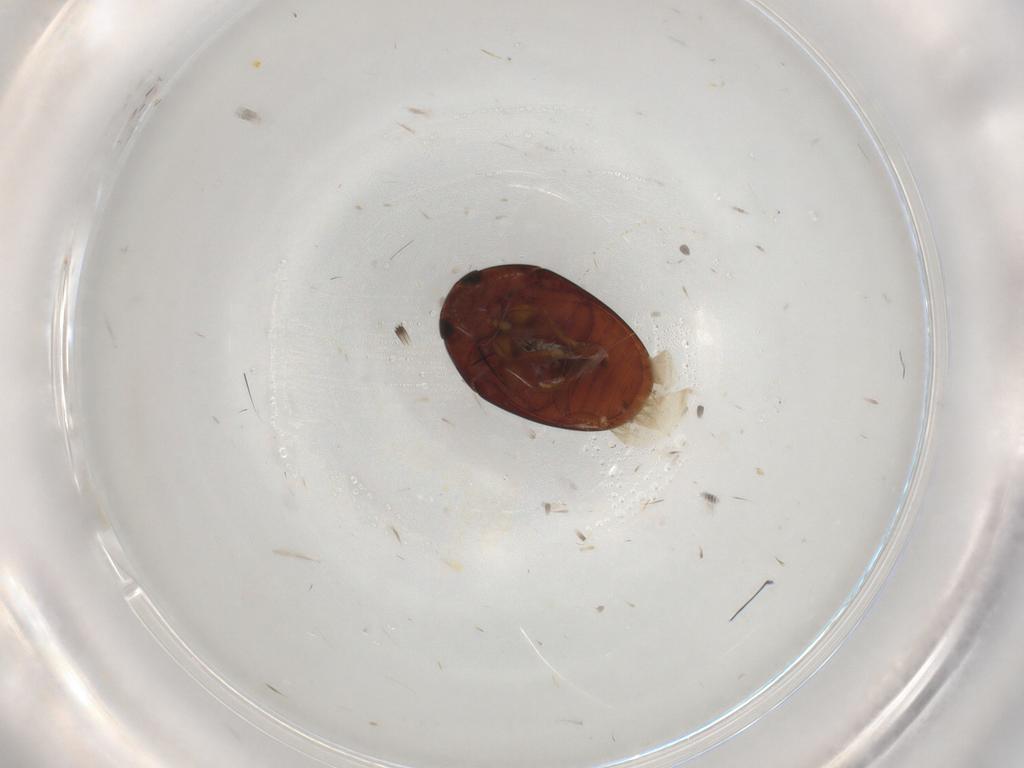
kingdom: Animalia
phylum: Arthropoda
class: Insecta
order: Coleoptera
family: Phalacridae
